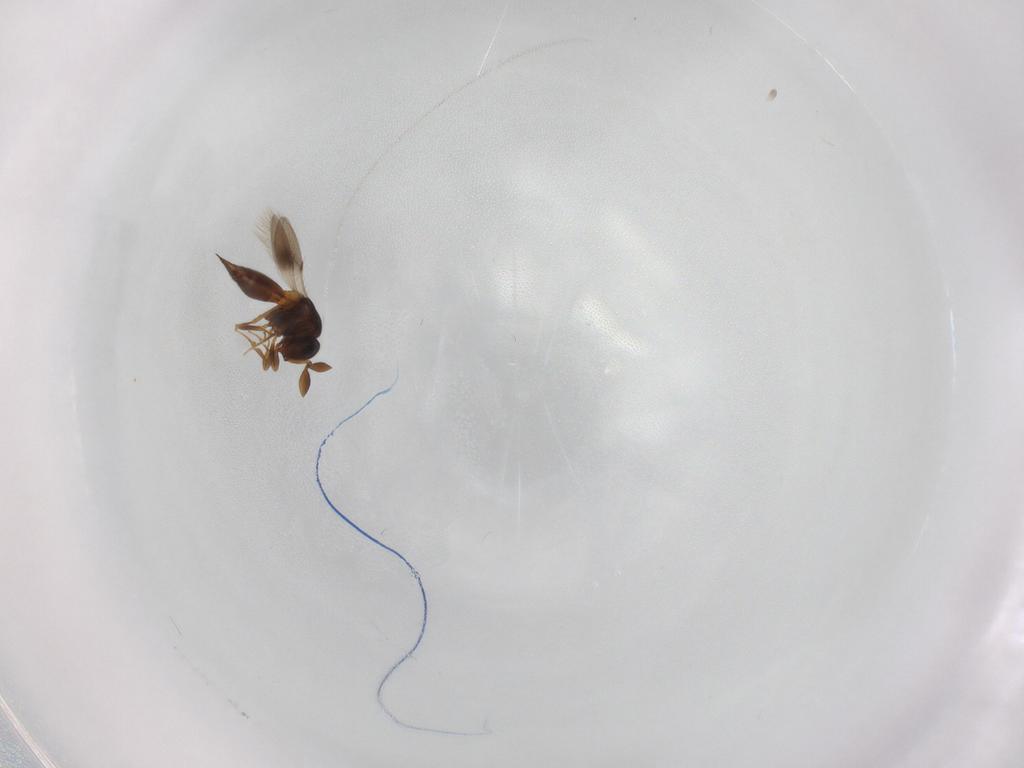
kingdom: Animalia
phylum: Arthropoda
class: Insecta
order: Hymenoptera
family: Scelionidae
